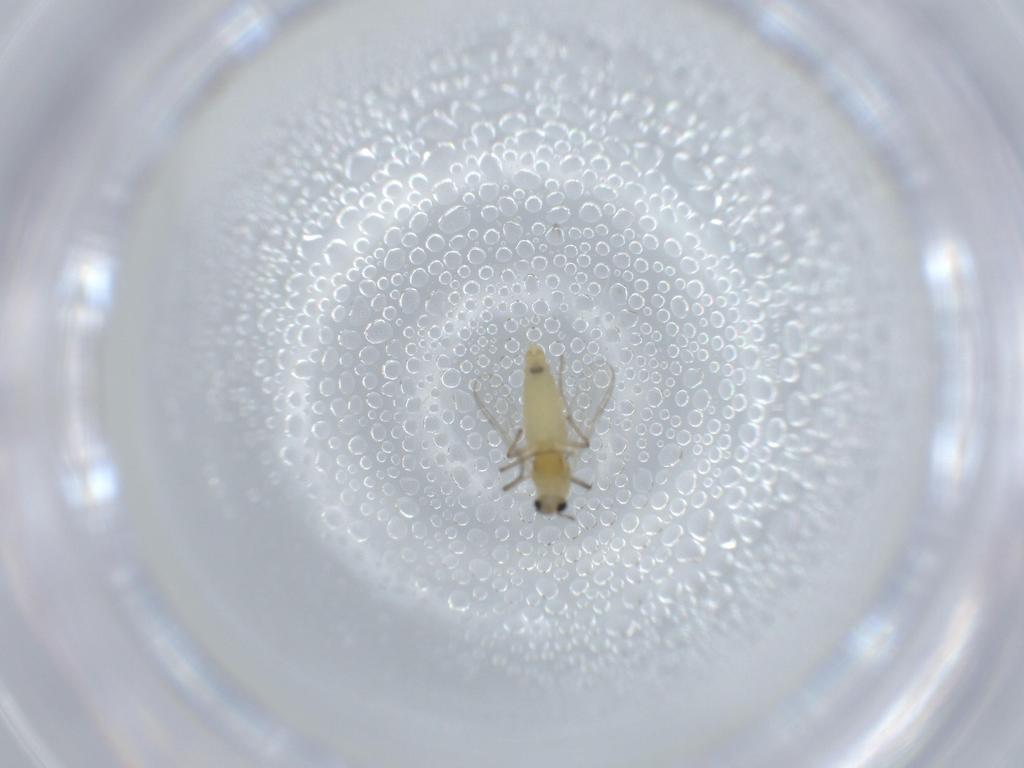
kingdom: Animalia
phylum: Arthropoda
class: Insecta
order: Diptera
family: Chironomidae
